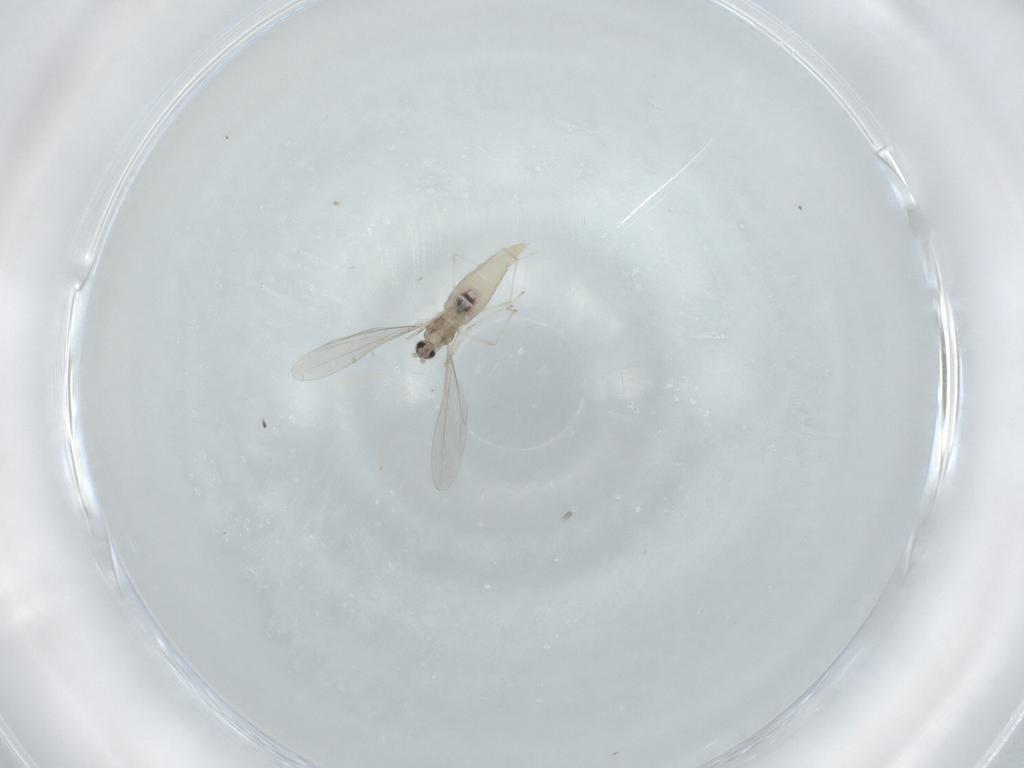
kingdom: Animalia
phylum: Arthropoda
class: Insecta
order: Diptera
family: Cecidomyiidae
